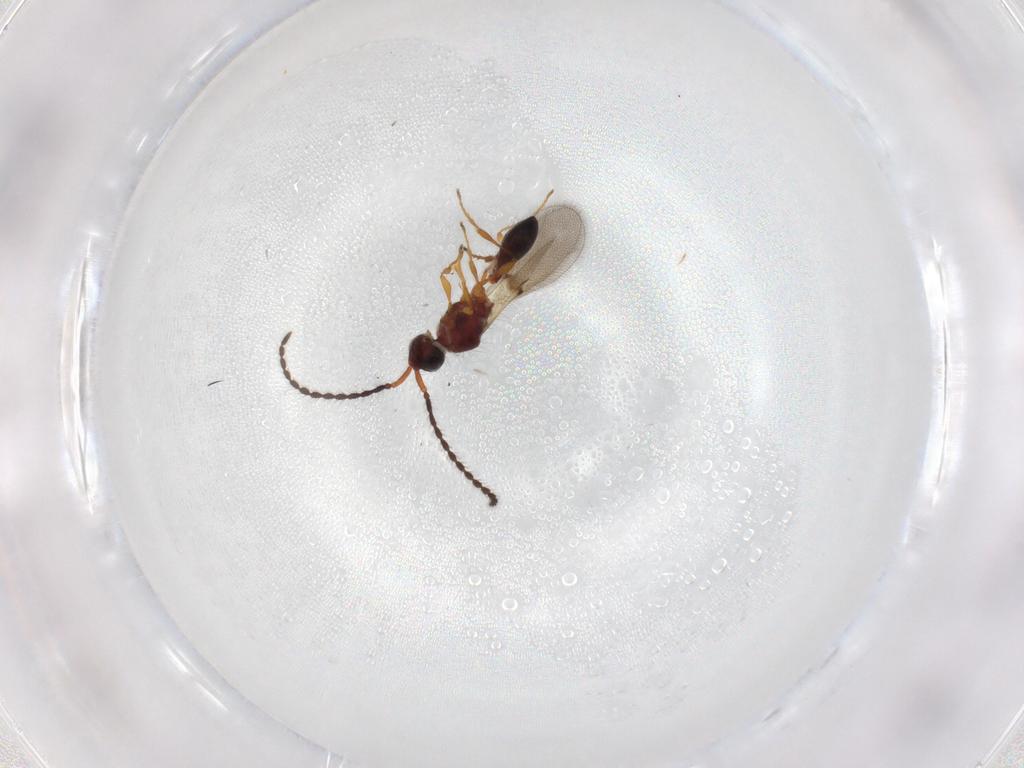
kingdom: Animalia
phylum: Arthropoda
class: Insecta
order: Hymenoptera
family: Diapriidae
